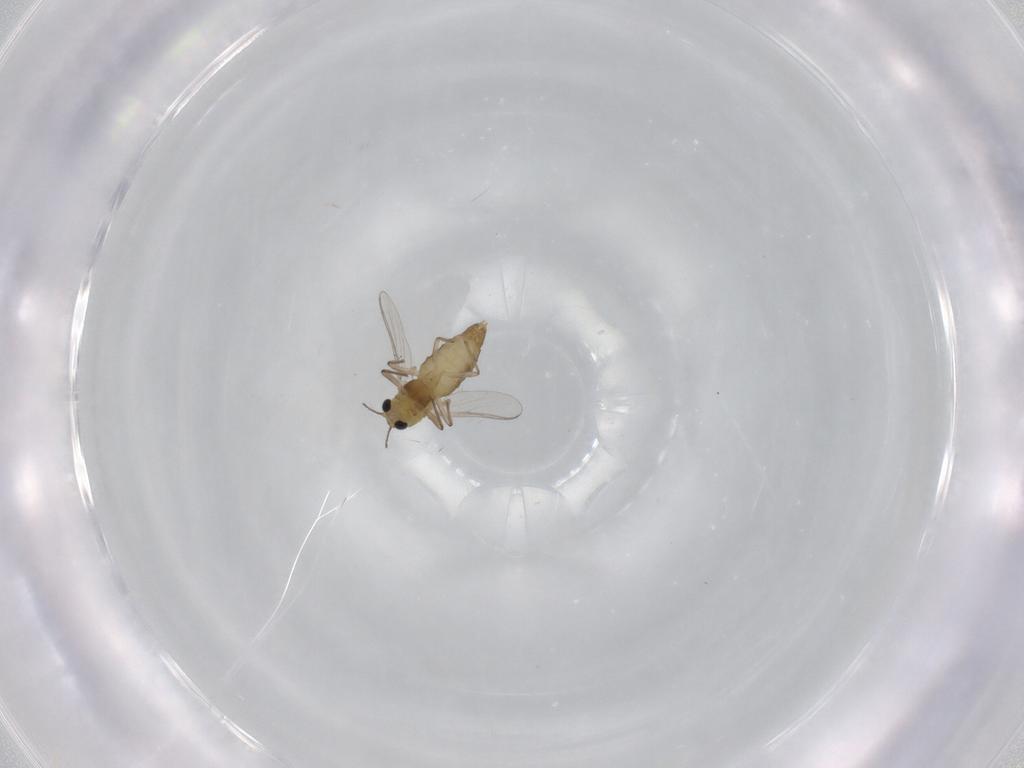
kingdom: Animalia
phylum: Arthropoda
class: Insecta
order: Diptera
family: Chironomidae
